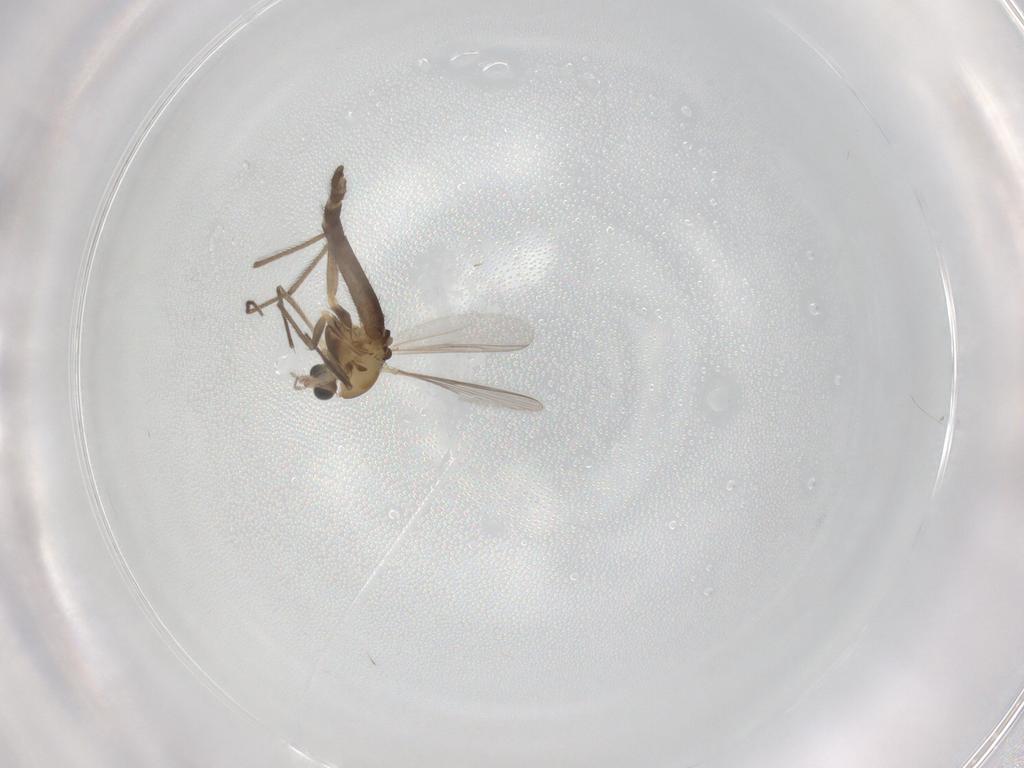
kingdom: Animalia
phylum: Arthropoda
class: Insecta
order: Diptera
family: Chironomidae
